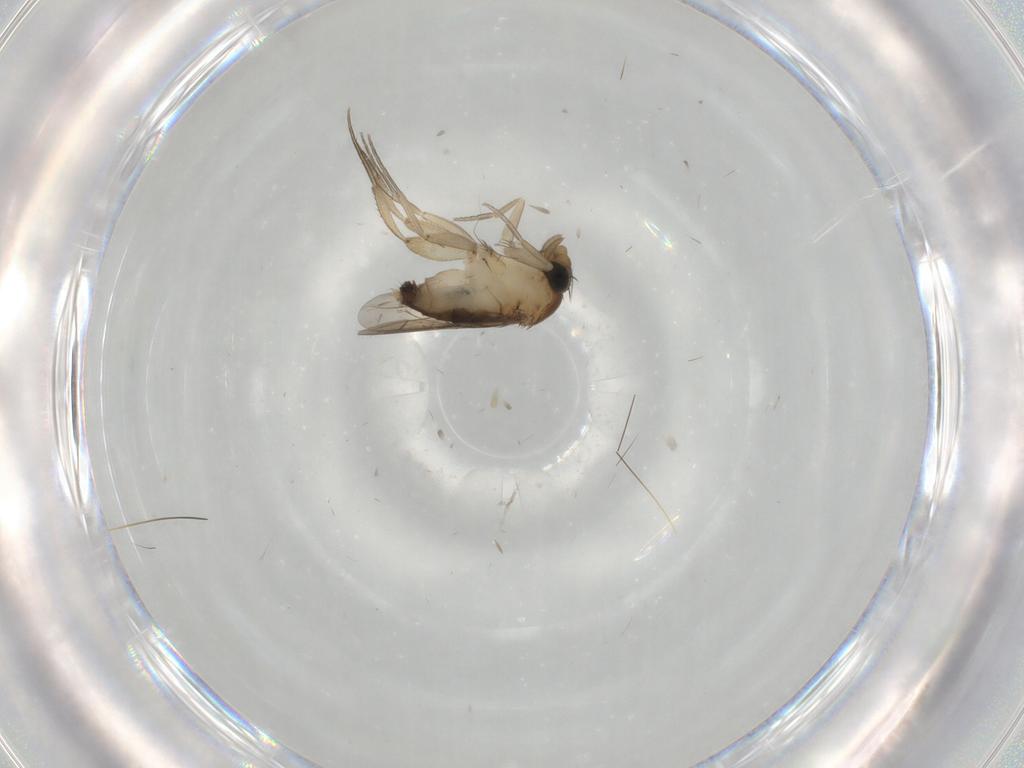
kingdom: Animalia
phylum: Arthropoda
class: Insecta
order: Diptera
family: Phoridae
